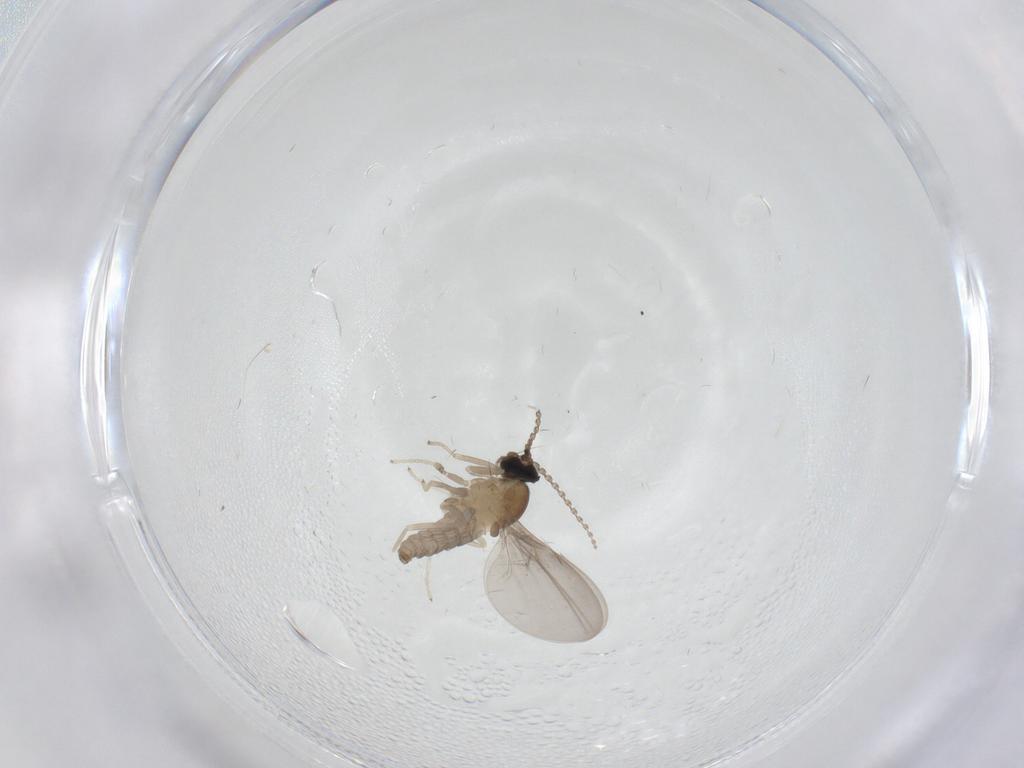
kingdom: Animalia
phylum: Arthropoda
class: Insecta
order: Diptera
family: Cecidomyiidae
